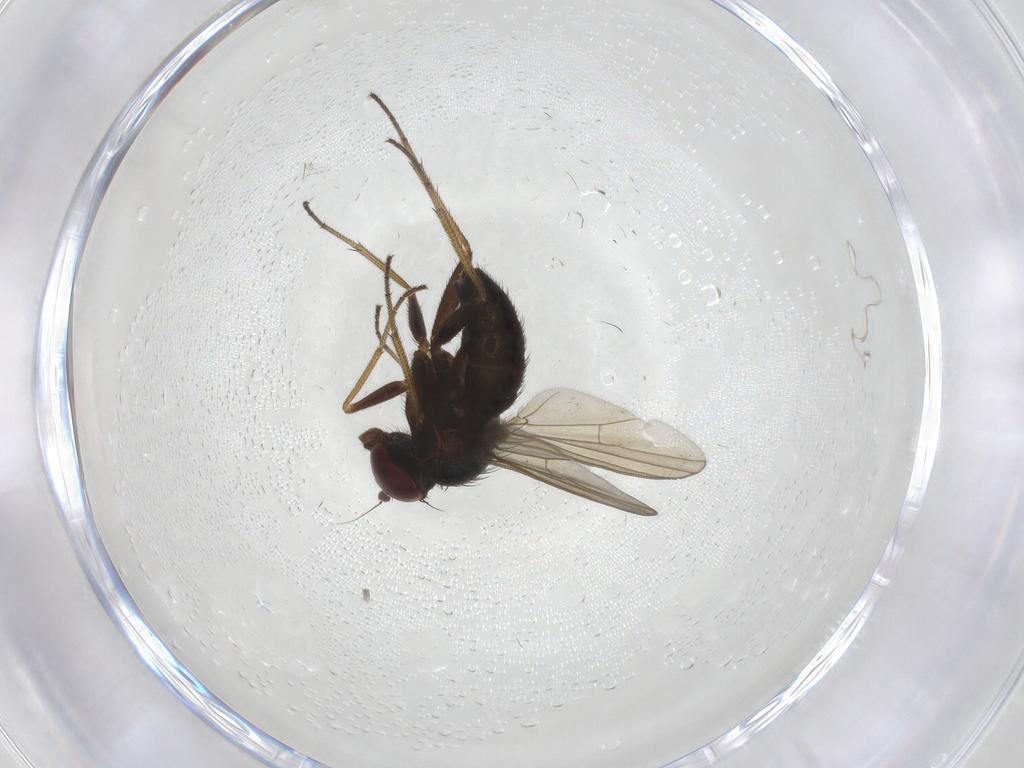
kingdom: Animalia
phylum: Arthropoda
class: Insecta
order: Diptera
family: Dolichopodidae
